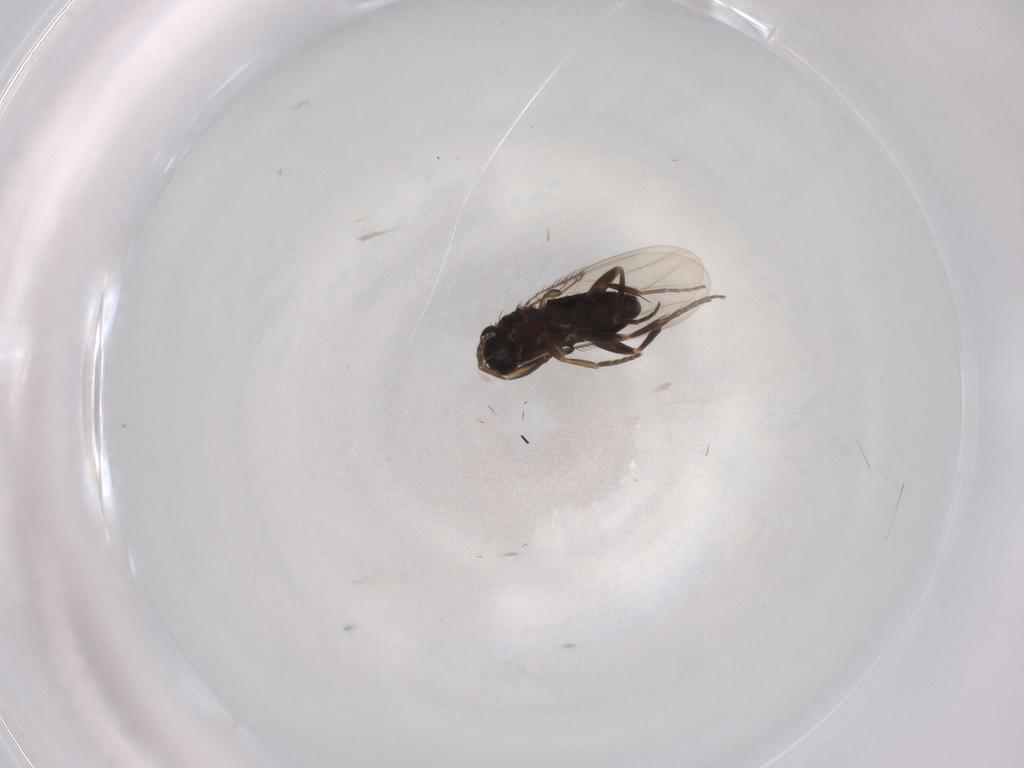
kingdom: Animalia
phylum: Arthropoda
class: Insecta
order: Diptera
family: Phoridae
